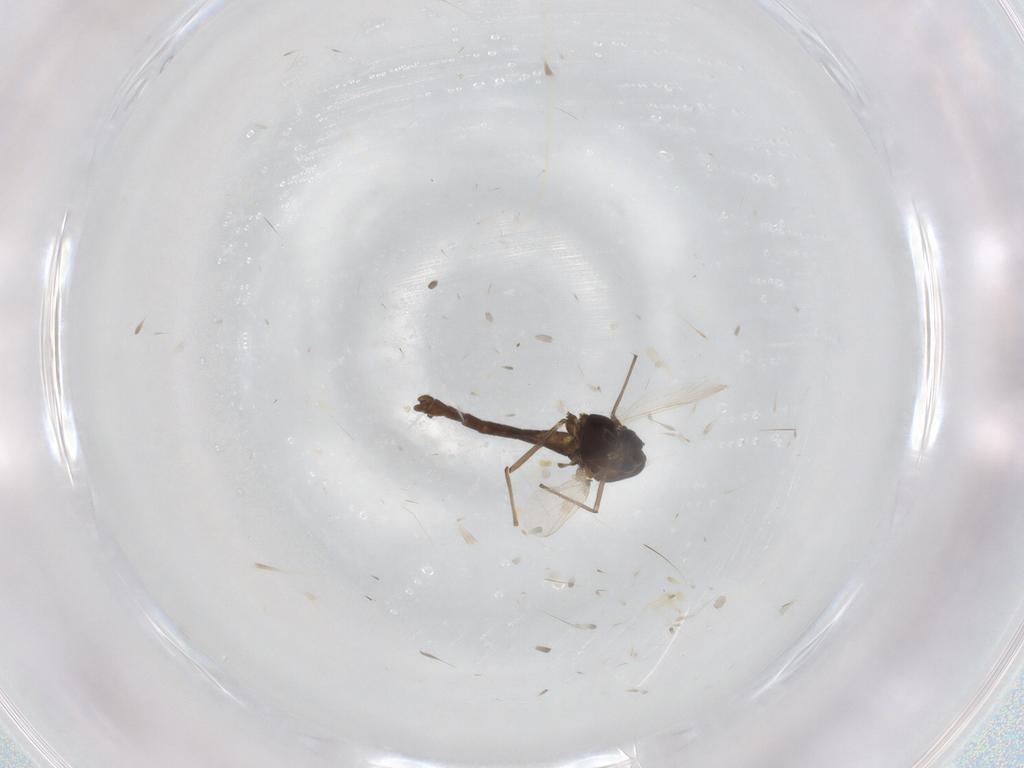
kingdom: Animalia
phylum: Arthropoda
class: Insecta
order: Diptera
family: Chironomidae
